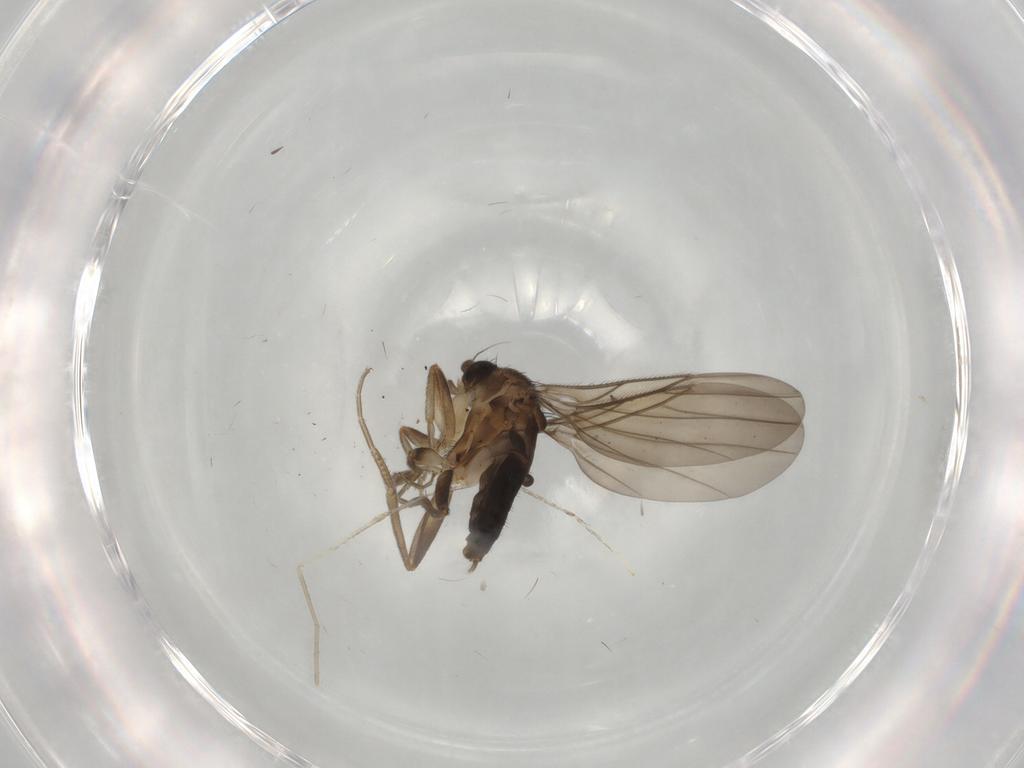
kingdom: Animalia
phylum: Arthropoda
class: Insecta
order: Diptera
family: Cecidomyiidae
